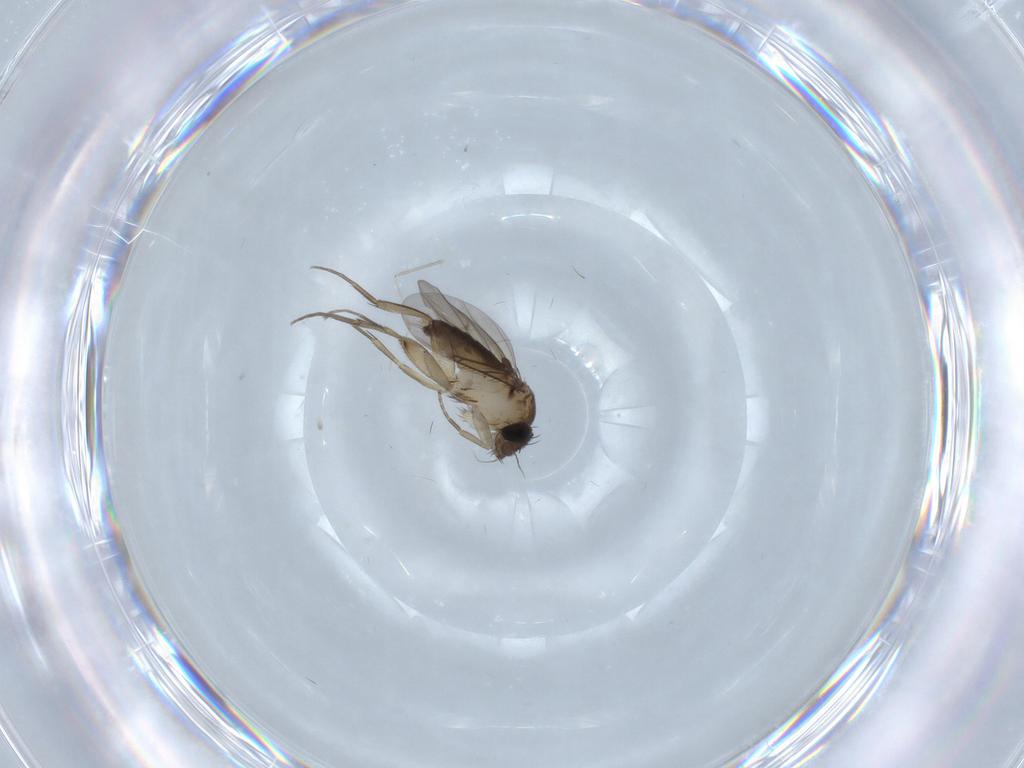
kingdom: Animalia
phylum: Arthropoda
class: Insecta
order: Diptera
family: Phoridae
